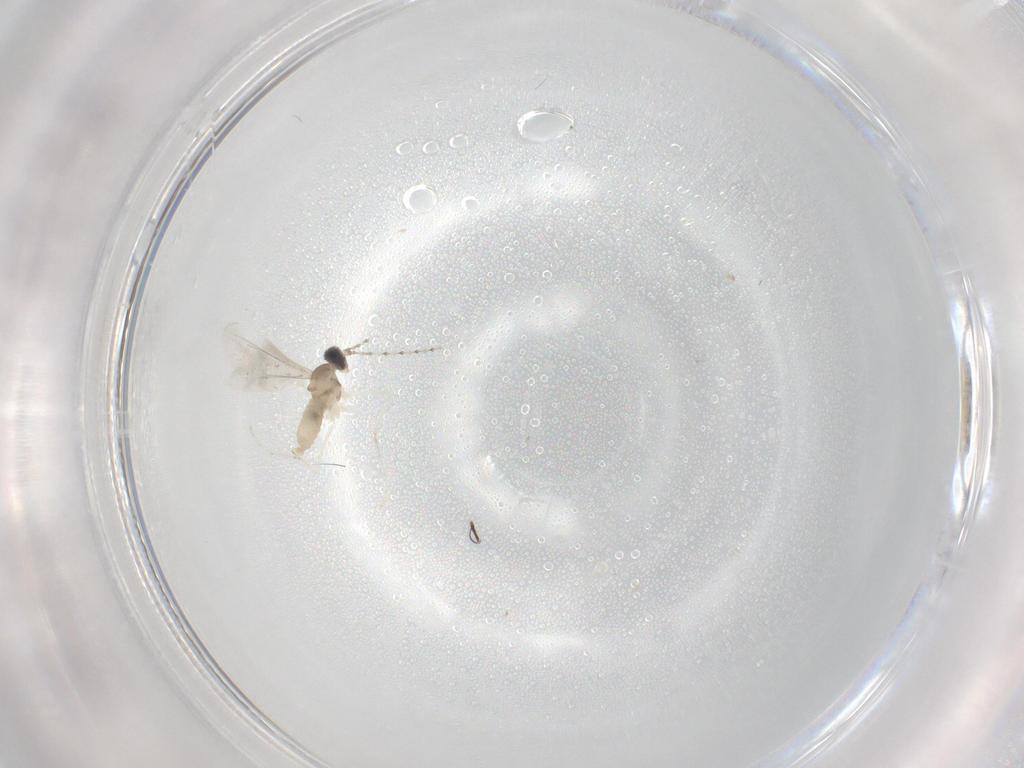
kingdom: Animalia
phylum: Arthropoda
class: Insecta
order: Diptera
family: Cecidomyiidae
